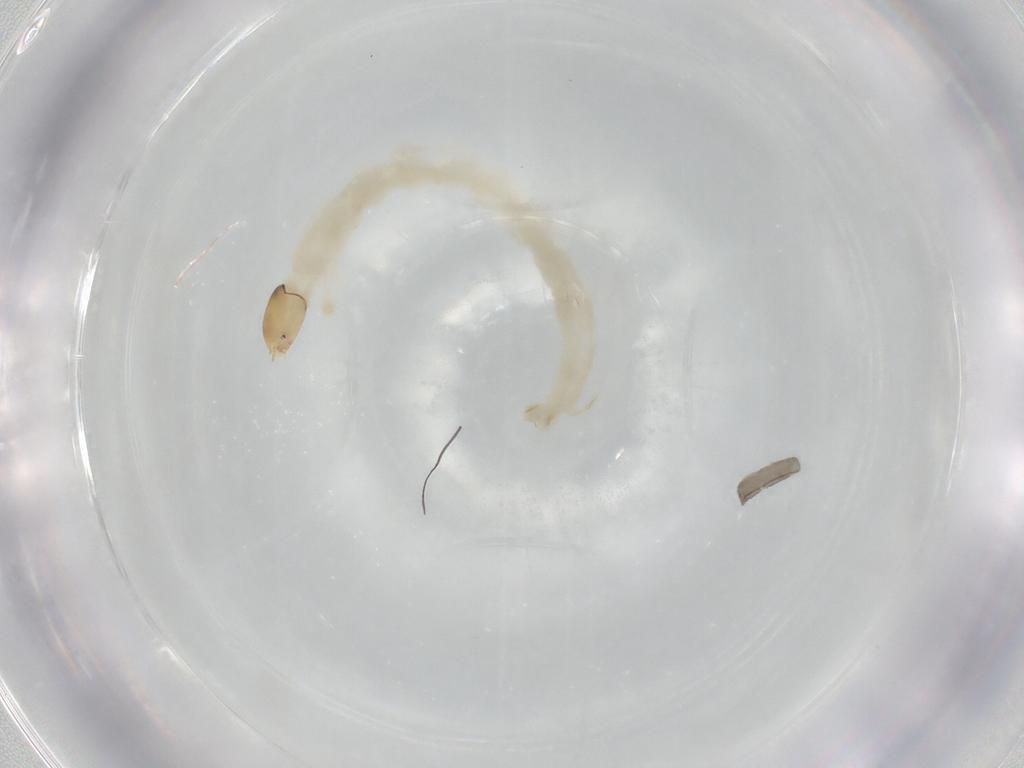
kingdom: Animalia
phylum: Arthropoda
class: Insecta
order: Diptera
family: Chironomidae
